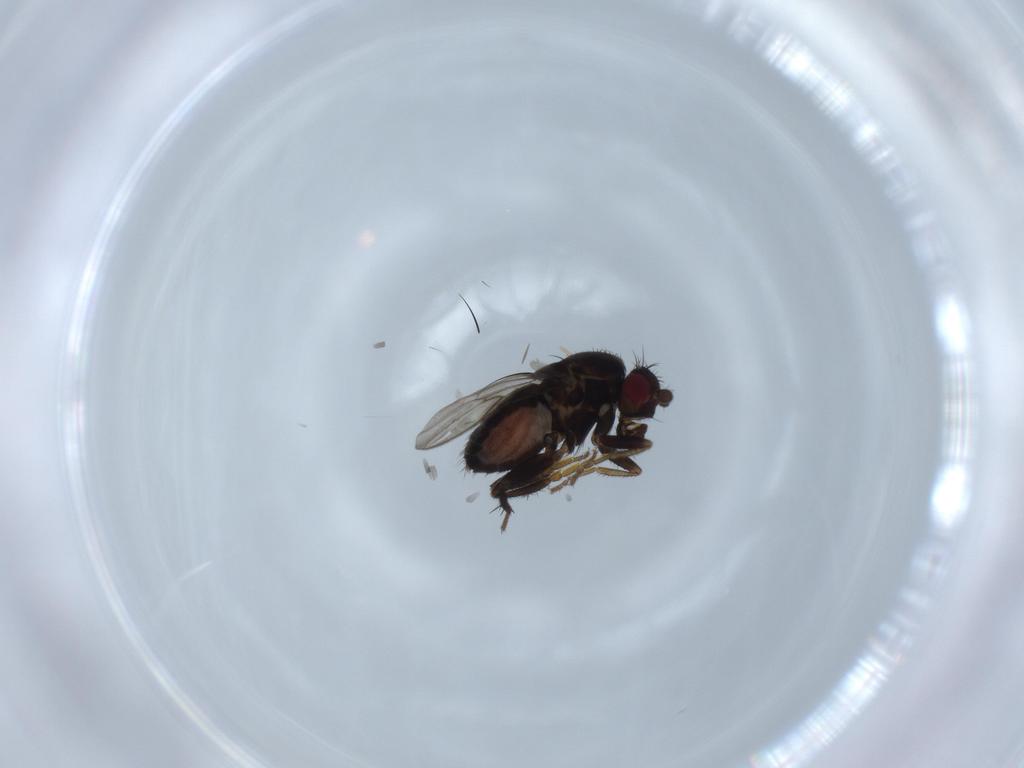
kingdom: Animalia
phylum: Arthropoda
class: Insecta
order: Diptera
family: Sphaeroceridae
